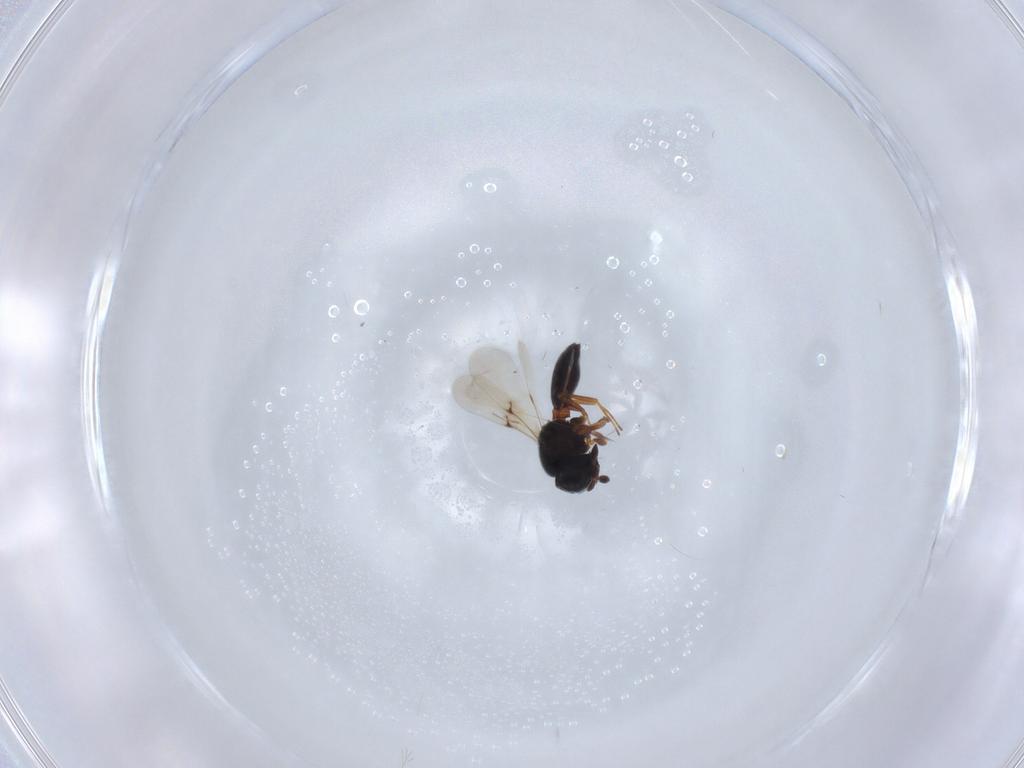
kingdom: Animalia
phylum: Arthropoda
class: Insecta
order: Hymenoptera
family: Scelionidae
